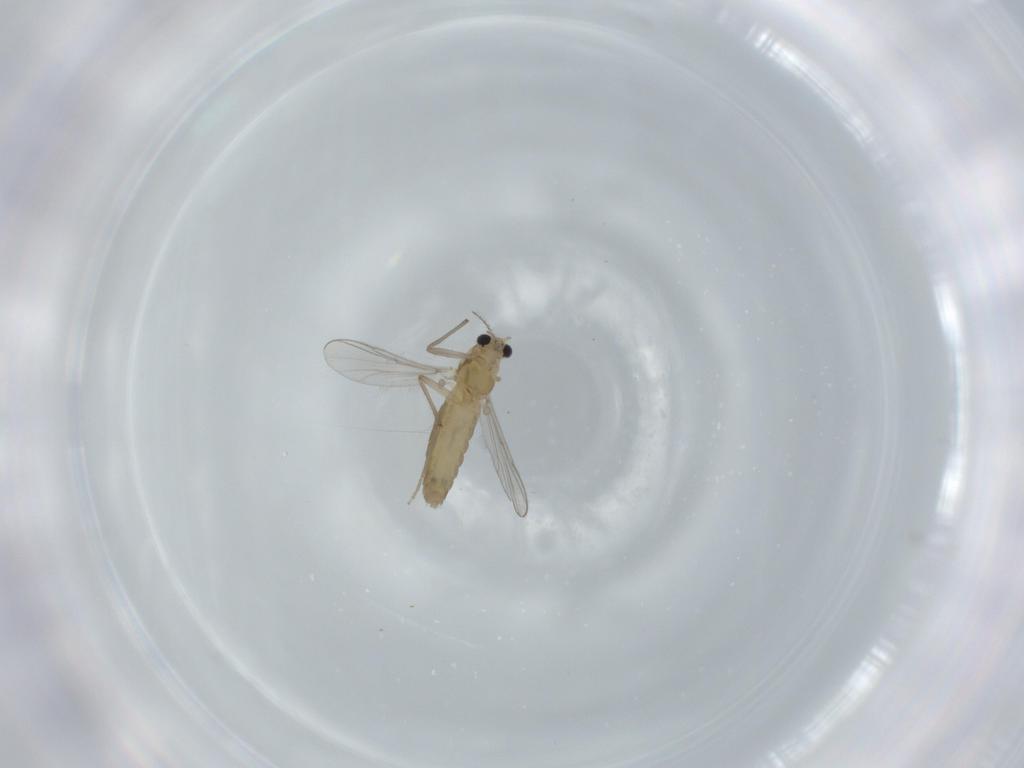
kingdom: Animalia
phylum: Arthropoda
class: Insecta
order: Diptera
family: Chironomidae
